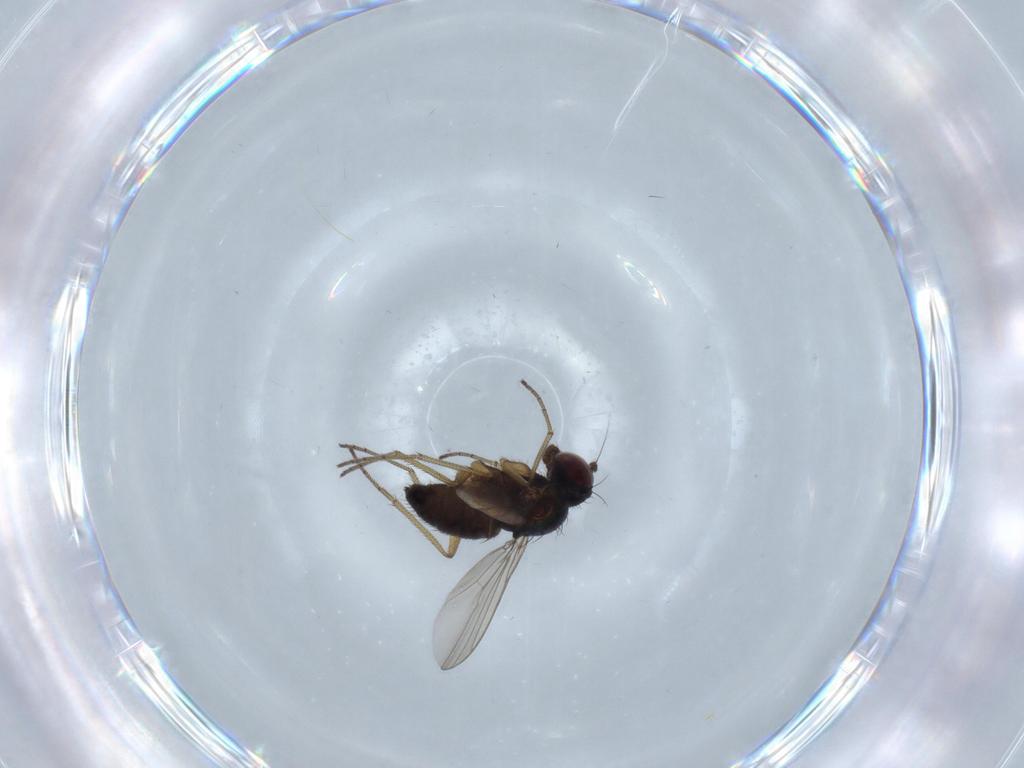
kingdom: Animalia
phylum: Arthropoda
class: Insecta
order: Diptera
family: Dolichopodidae
